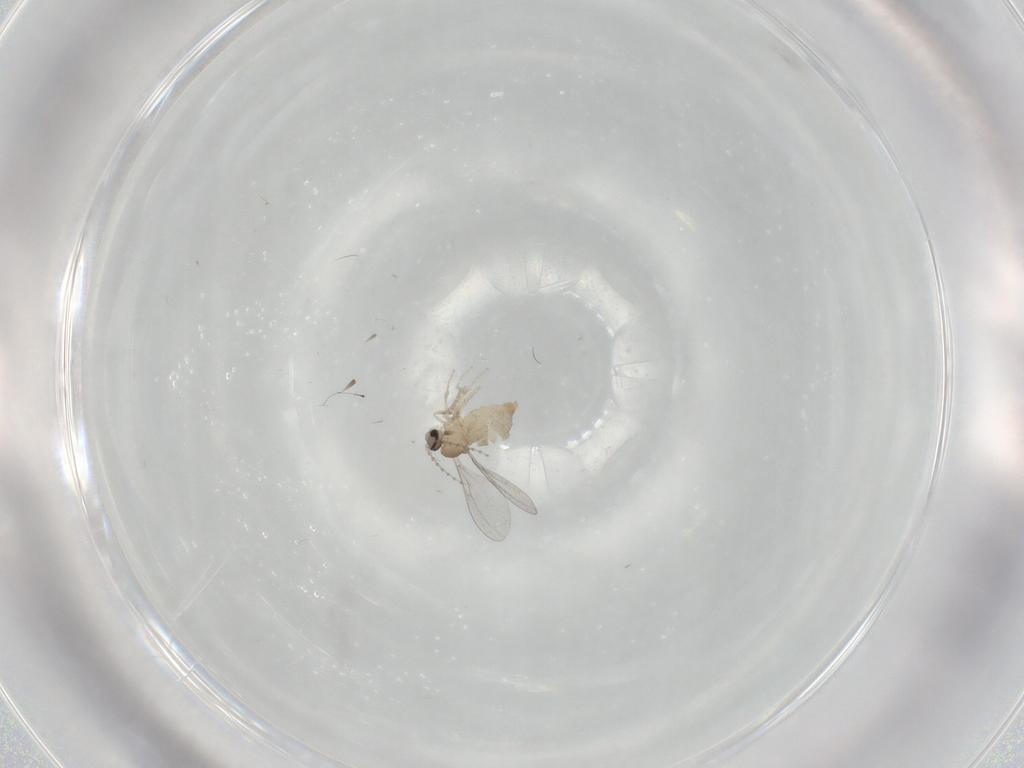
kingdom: Animalia
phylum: Arthropoda
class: Insecta
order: Diptera
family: Cecidomyiidae
